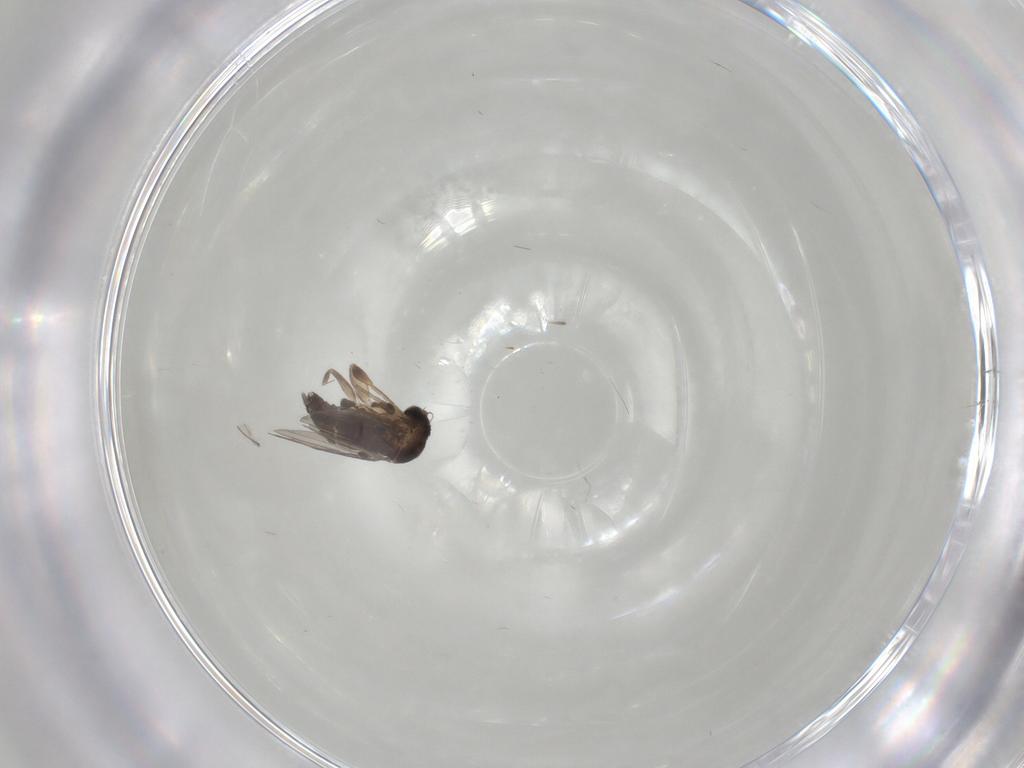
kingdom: Animalia
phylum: Arthropoda
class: Insecta
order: Diptera
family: Phoridae
